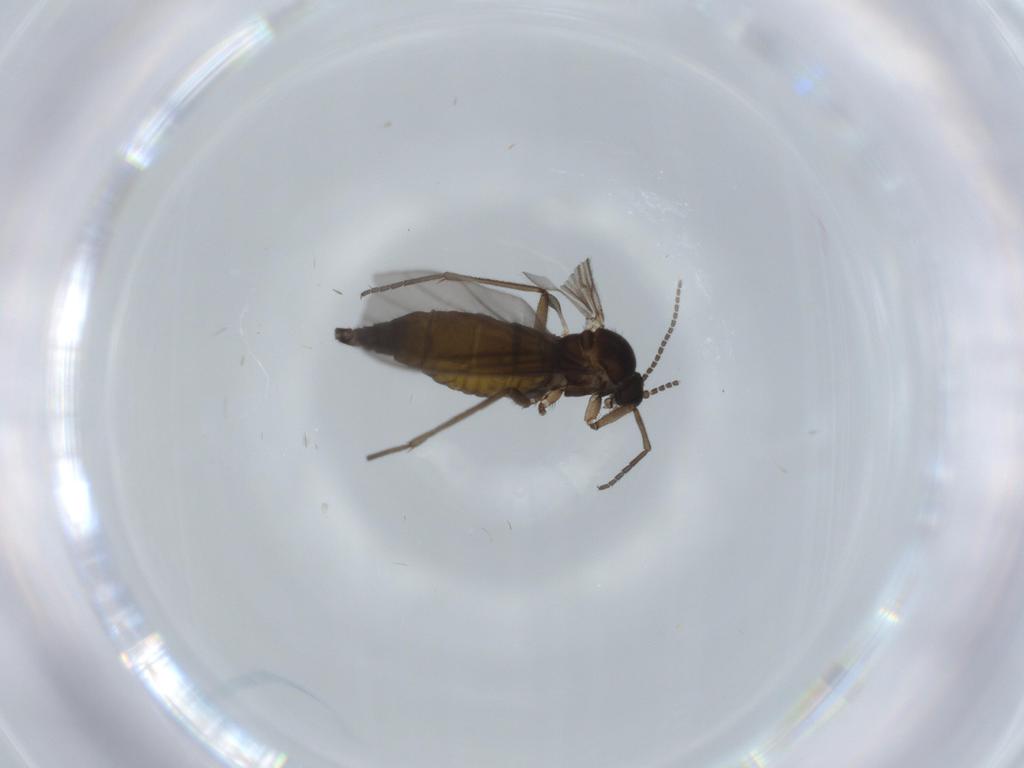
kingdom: Animalia
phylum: Arthropoda
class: Insecta
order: Diptera
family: Sciaridae
